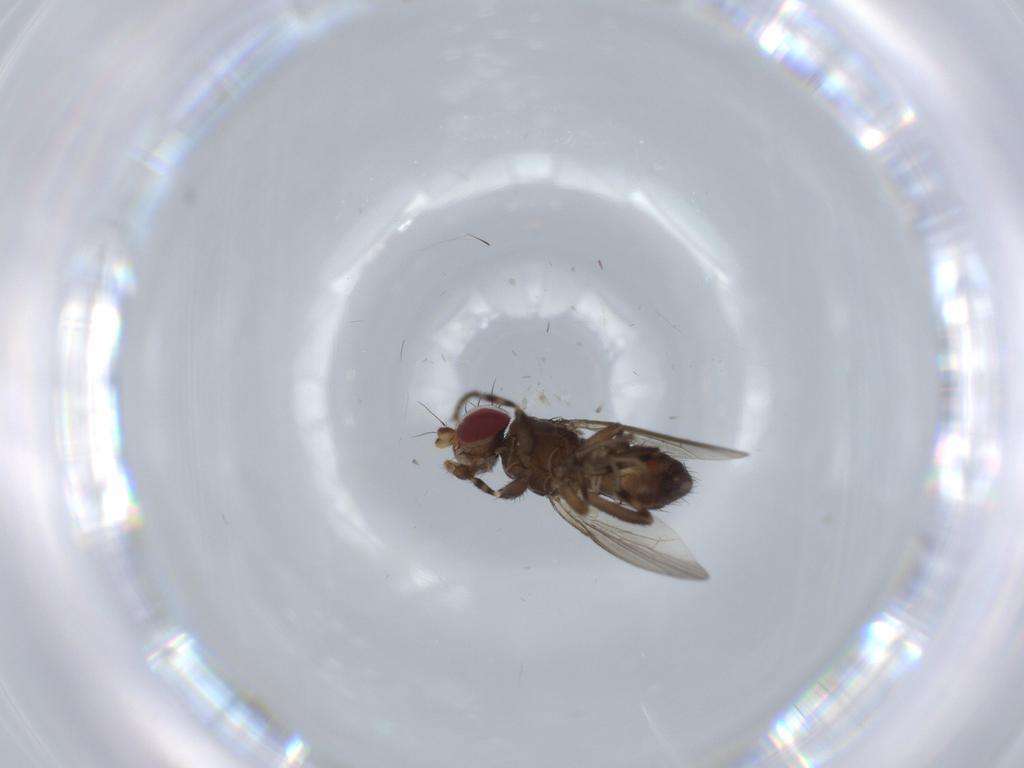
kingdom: Animalia
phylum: Arthropoda
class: Insecta
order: Diptera
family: Heleomyzidae
